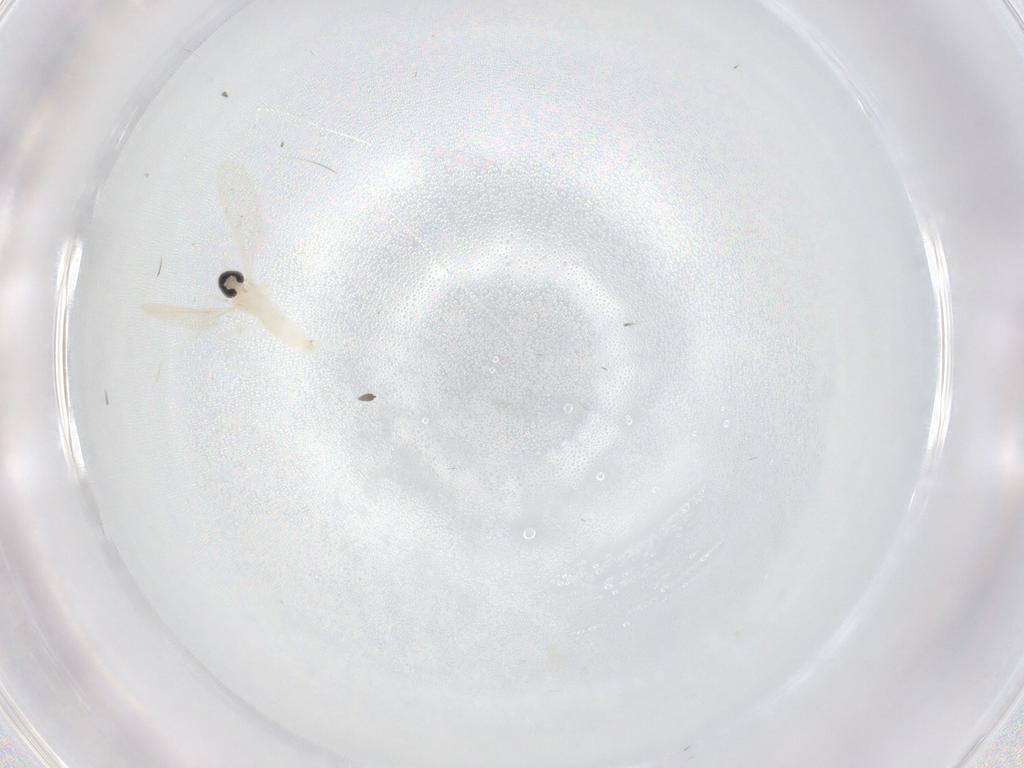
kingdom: Animalia
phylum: Arthropoda
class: Insecta
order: Diptera
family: Cecidomyiidae
